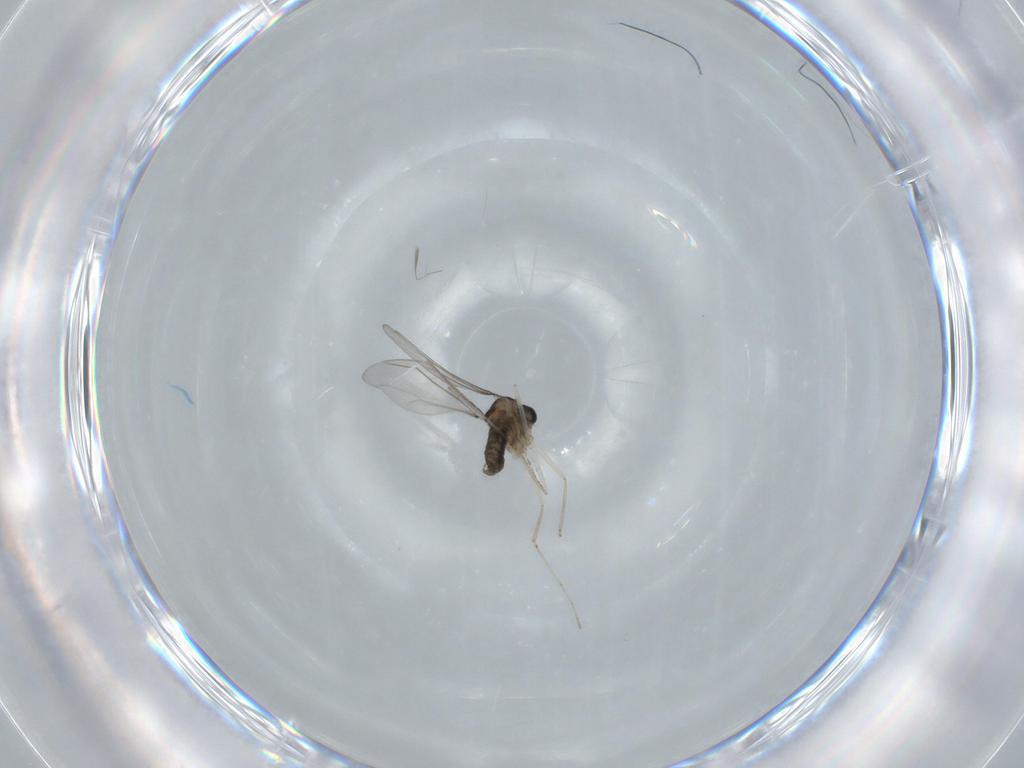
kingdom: Animalia
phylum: Arthropoda
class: Insecta
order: Diptera
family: Cecidomyiidae
